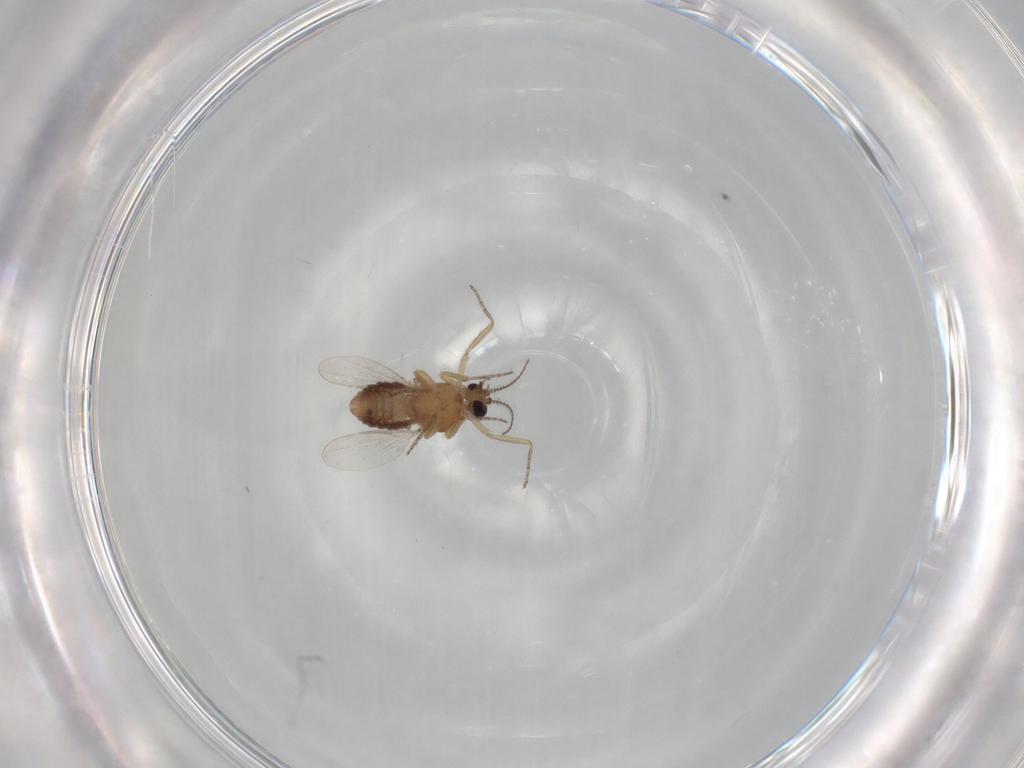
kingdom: Animalia
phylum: Arthropoda
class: Insecta
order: Diptera
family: Ceratopogonidae
